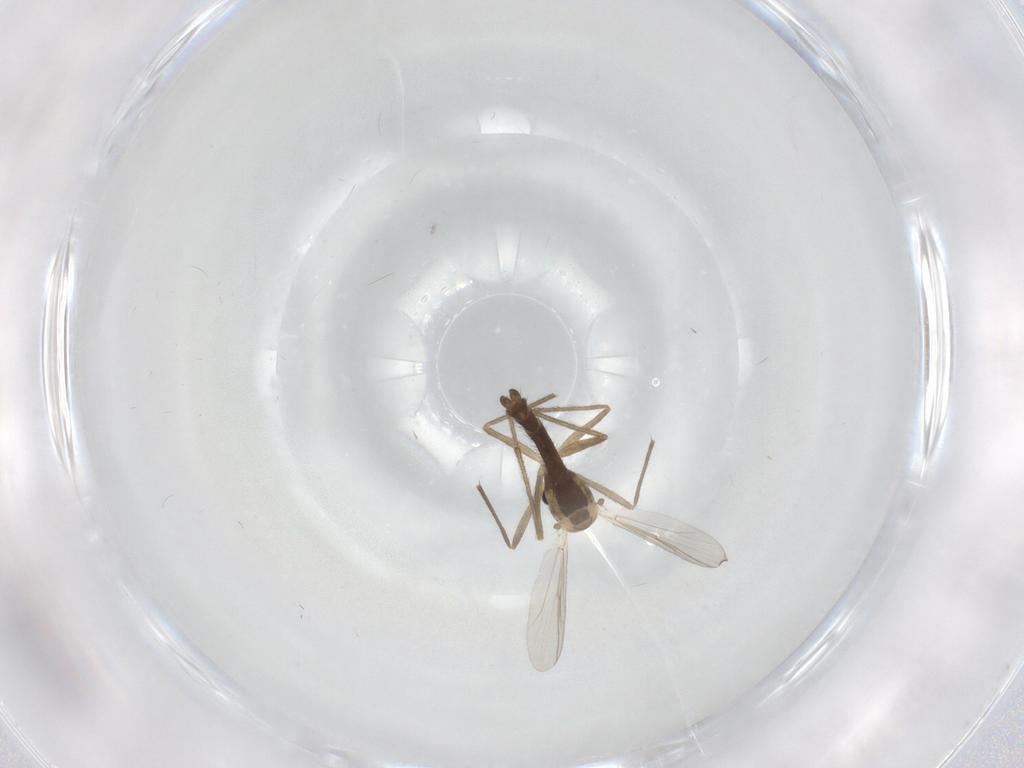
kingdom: Animalia
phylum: Arthropoda
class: Insecta
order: Diptera
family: Chironomidae
